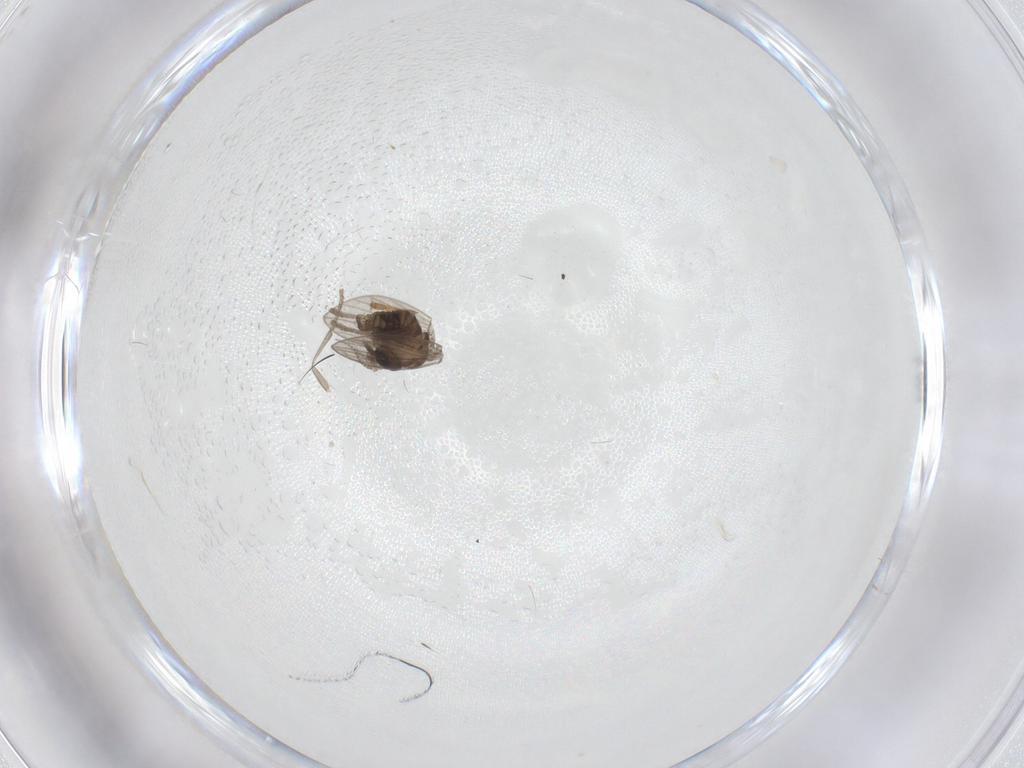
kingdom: Animalia
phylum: Arthropoda
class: Insecta
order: Diptera
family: Psychodidae
